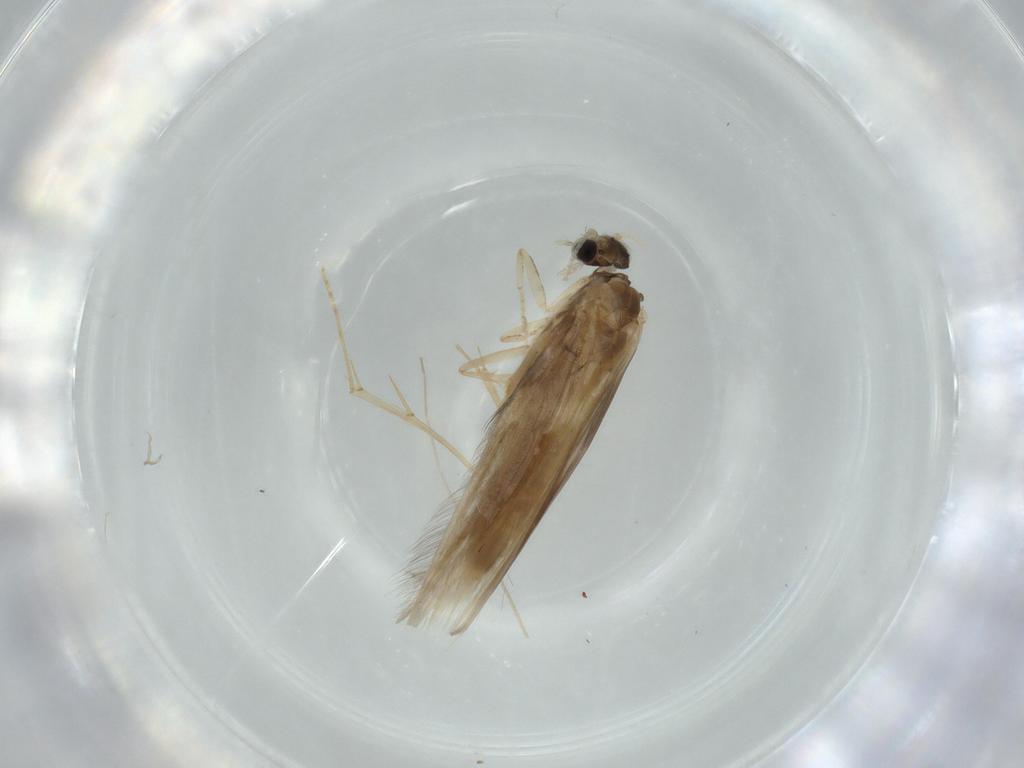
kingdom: Animalia
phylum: Arthropoda
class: Insecta
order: Trichoptera
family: Hydroptilidae
